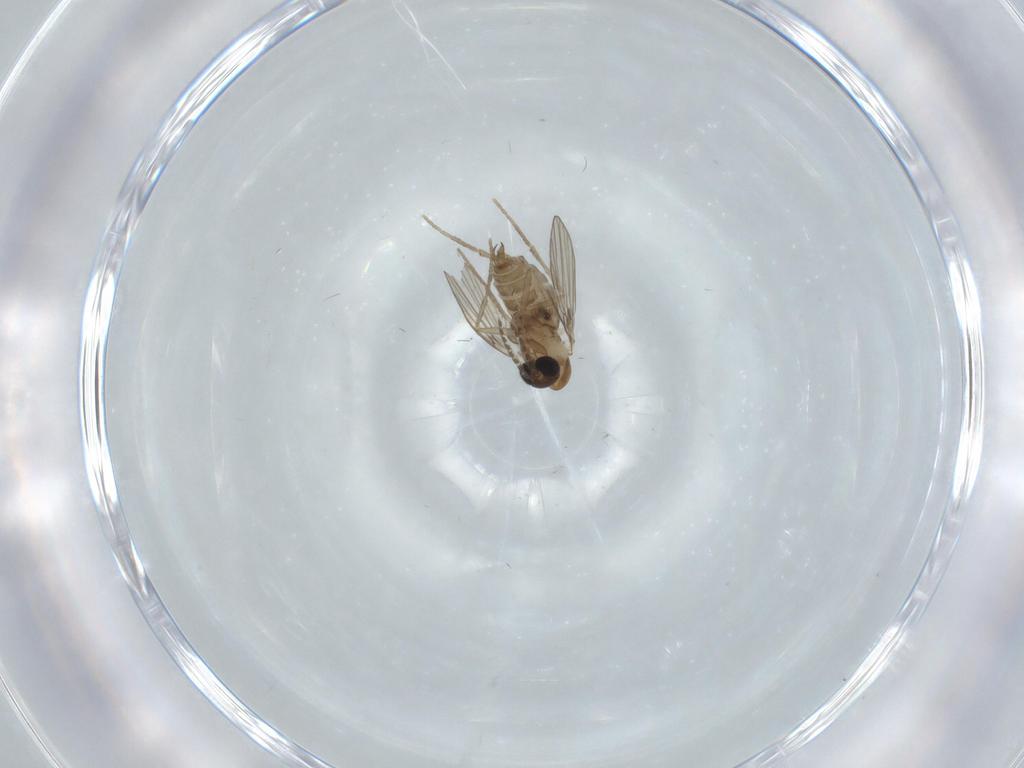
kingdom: Animalia
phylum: Arthropoda
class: Insecta
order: Diptera
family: Psychodidae
